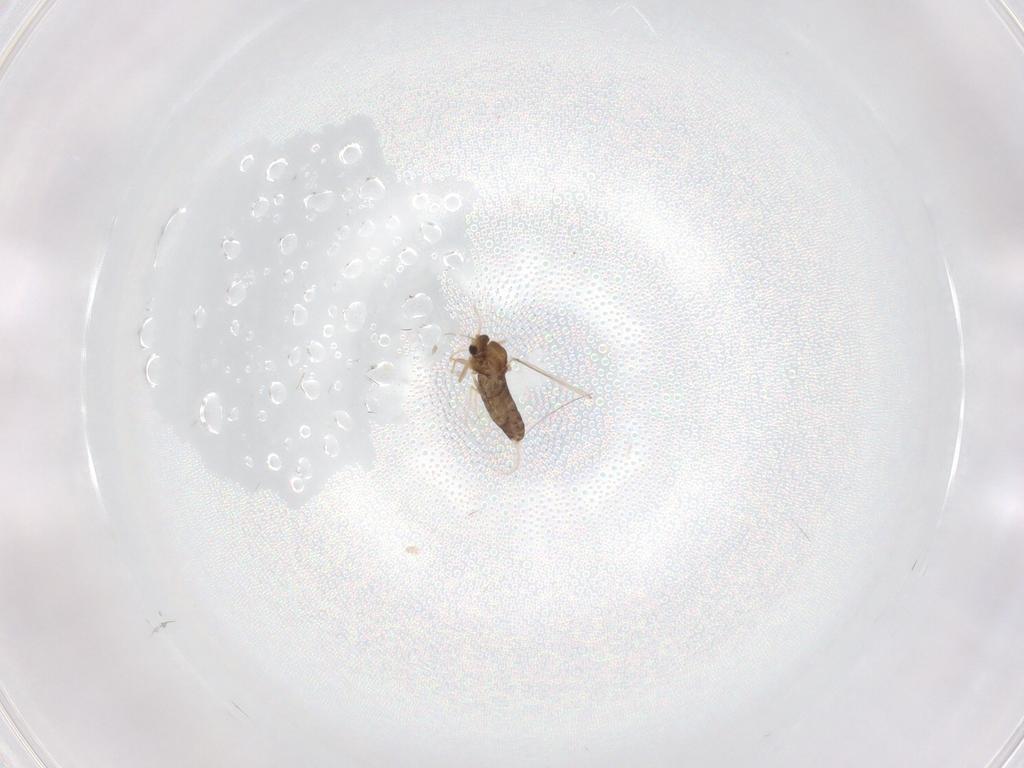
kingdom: Animalia
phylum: Arthropoda
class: Insecta
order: Diptera
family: Chironomidae
